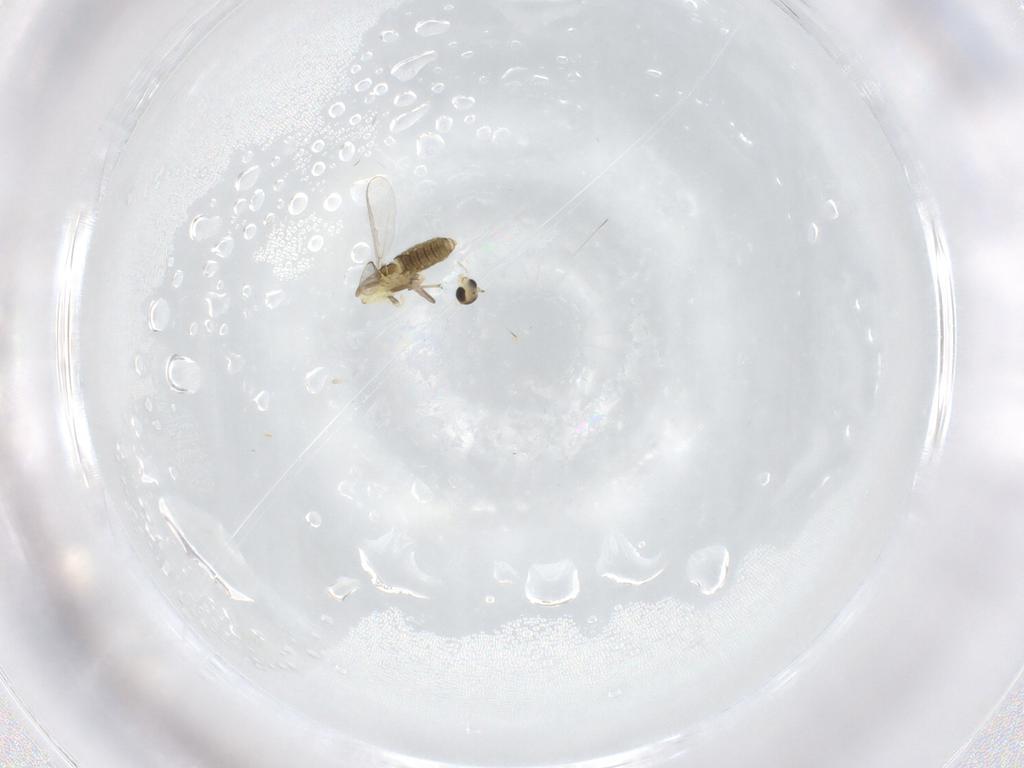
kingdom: Animalia
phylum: Arthropoda
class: Insecta
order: Diptera
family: Chironomidae
